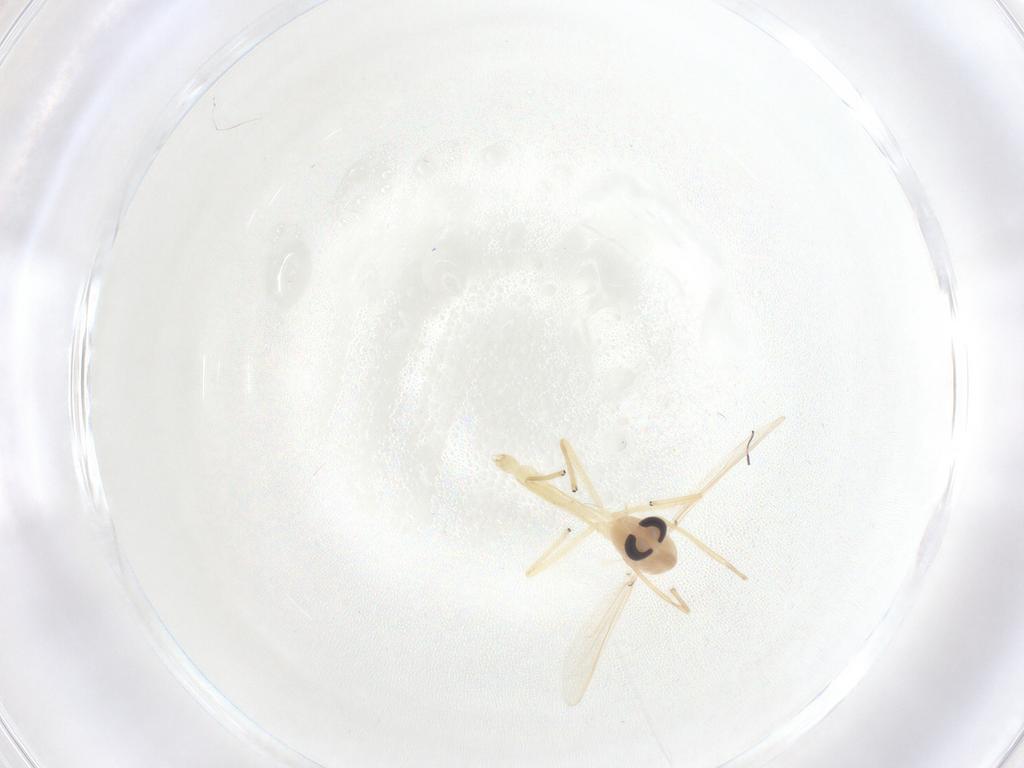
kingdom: Animalia
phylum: Arthropoda
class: Insecta
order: Diptera
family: Chironomidae
